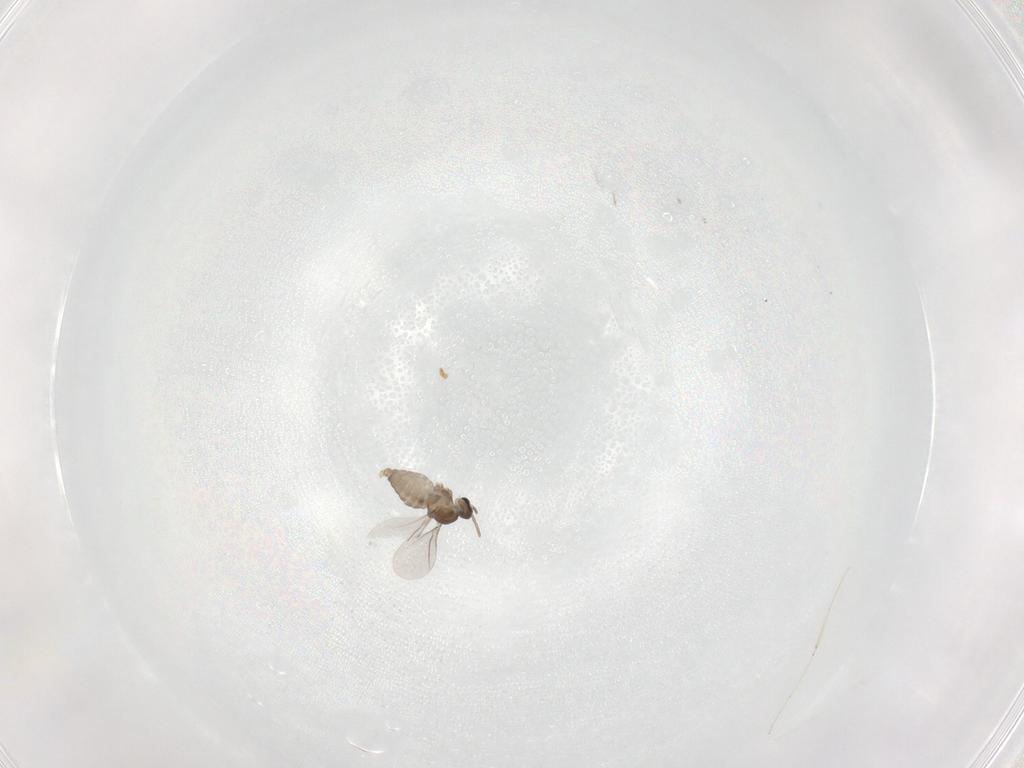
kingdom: Animalia
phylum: Arthropoda
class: Insecta
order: Diptera
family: Cecidomyiidae
